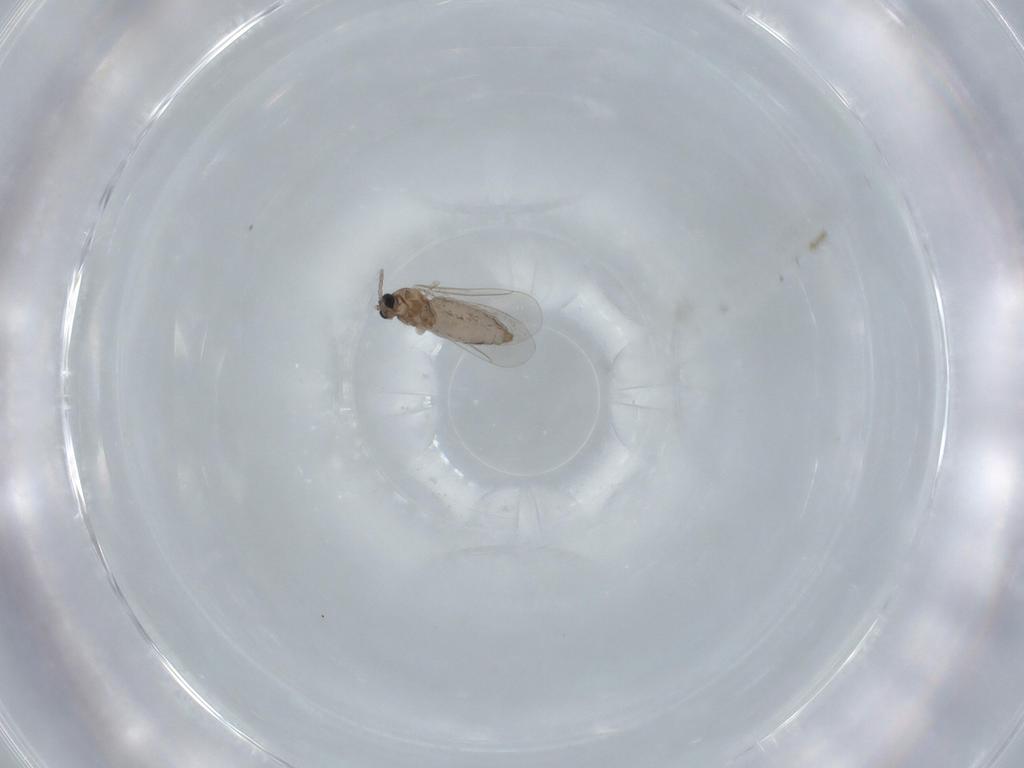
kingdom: Animalia
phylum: Arthropoda
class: Insecta
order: Diptera
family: Cecidomyiidae
